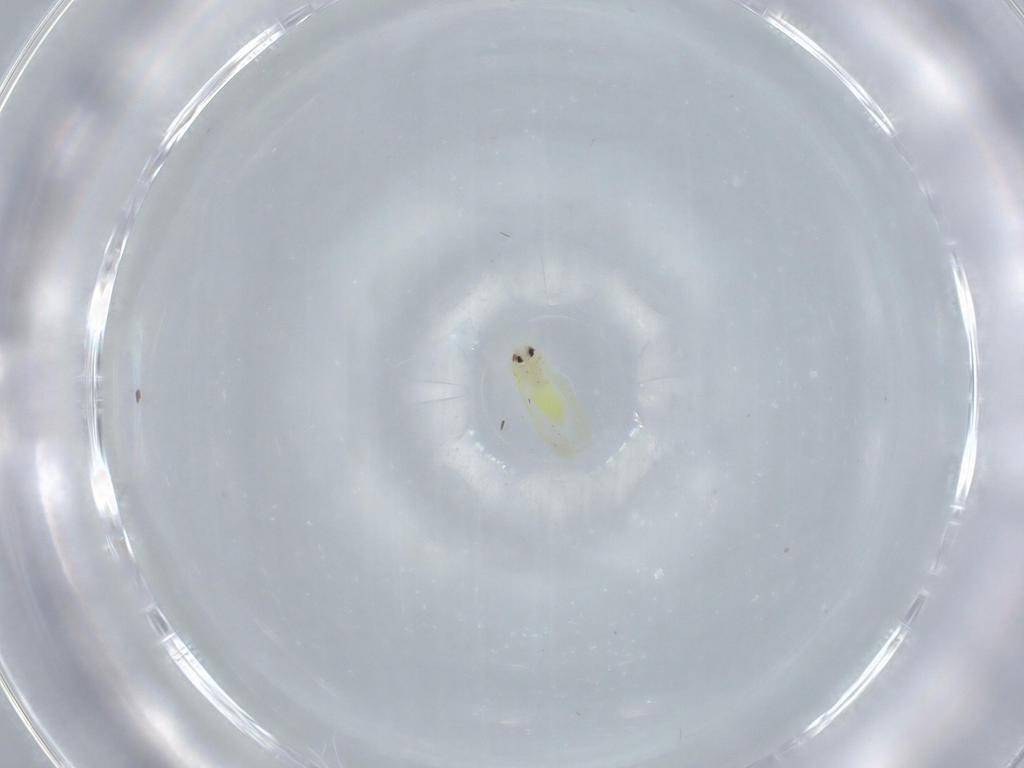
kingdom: Animalia
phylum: Arthropoda
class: Insecta
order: Hemiptera
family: Aleyrodidae
